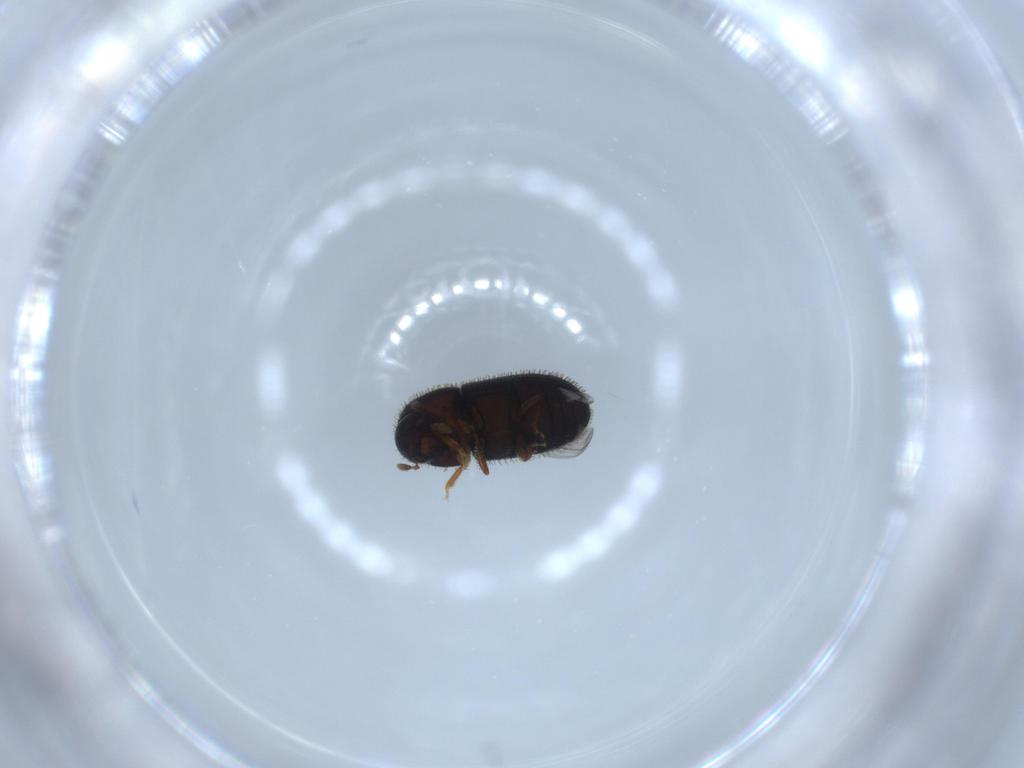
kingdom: Animalia
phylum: Arthropoda
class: Insecta
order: Coleoptera
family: Curculionidae
